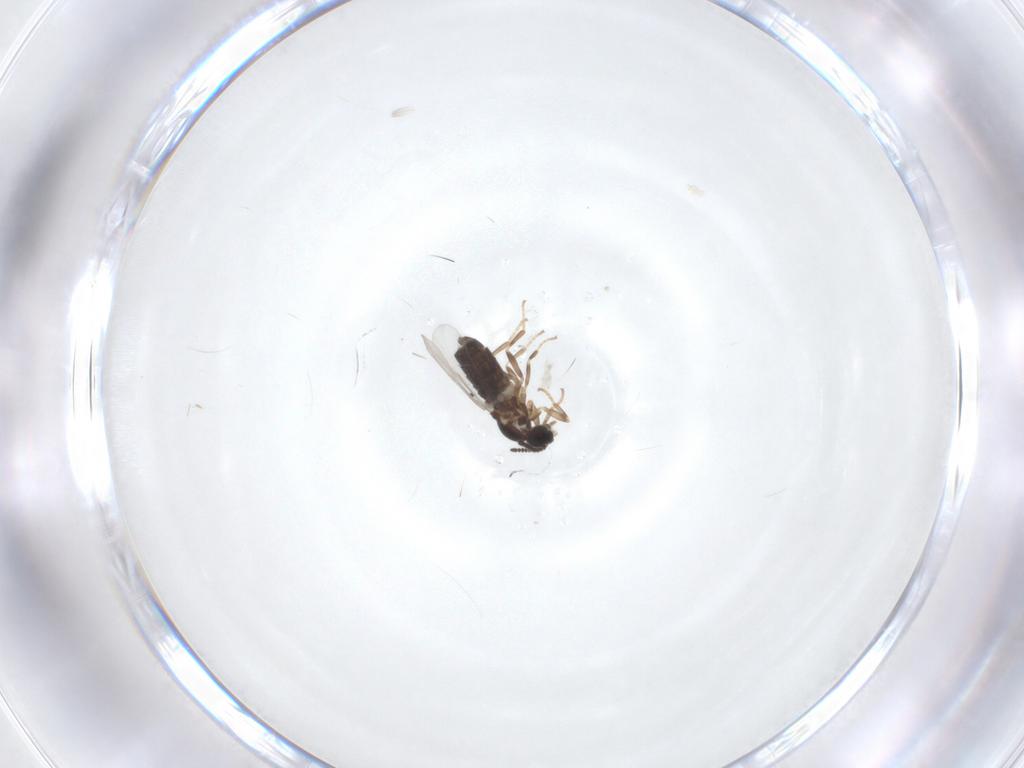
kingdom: Animalia
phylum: Arthropoda
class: Insecta
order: Diptera
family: Scatopsidae
